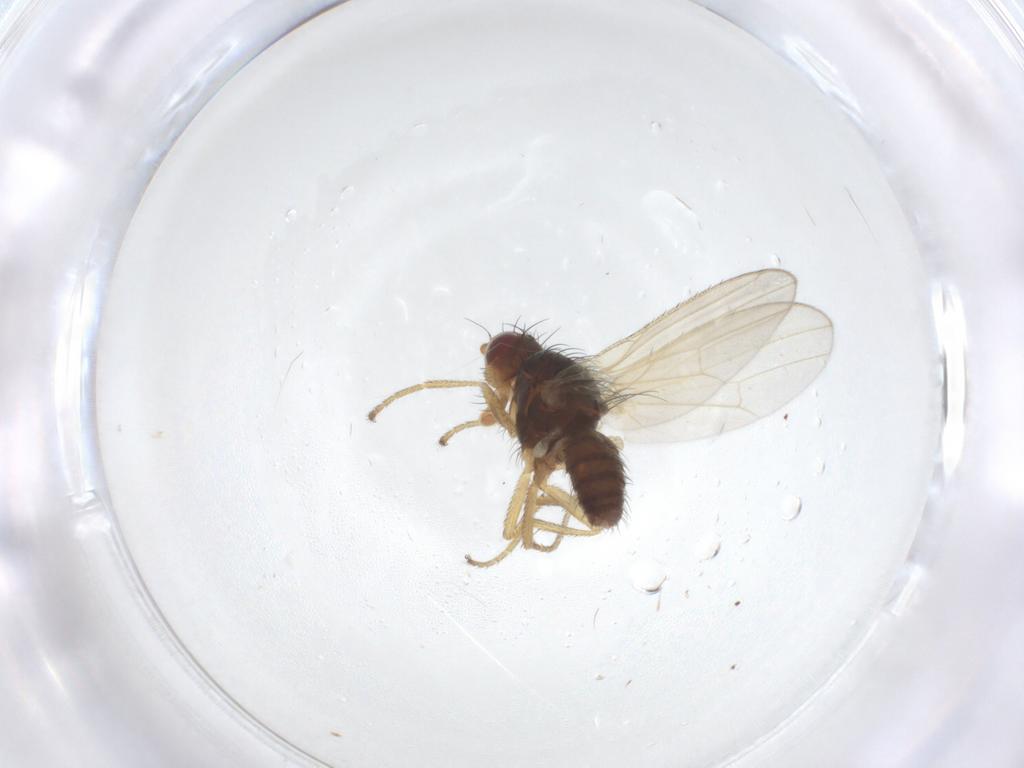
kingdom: Animalia
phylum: Arthropoda
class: Insecta
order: Diptera
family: Heleomyzidae
